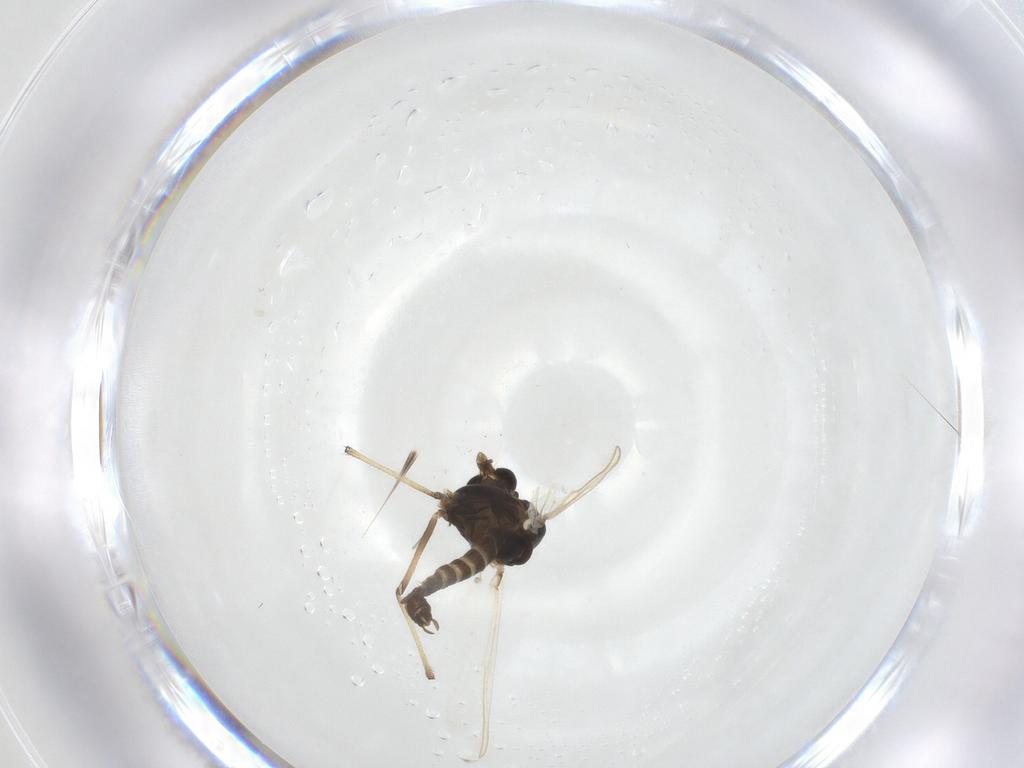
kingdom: Animalia
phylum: Arthropoda
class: Insecta
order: Diptera
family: Chironomidae
